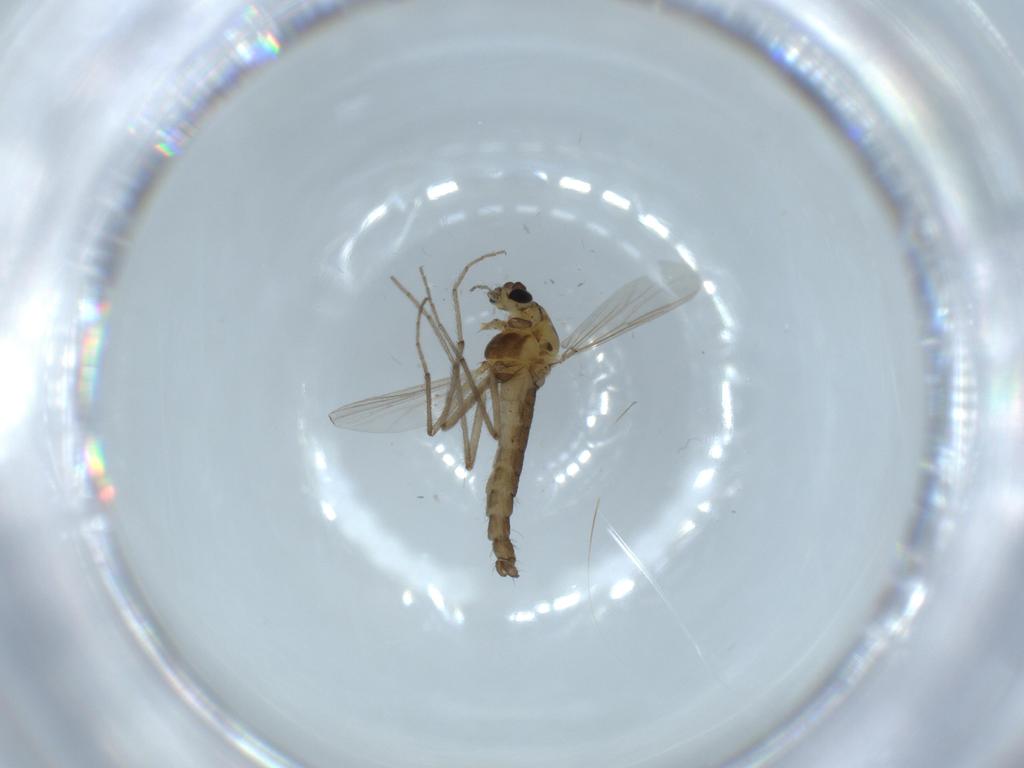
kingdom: Animalia
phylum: Arthropoda
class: Insecta
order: Diptera
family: Cecidomyiidae
